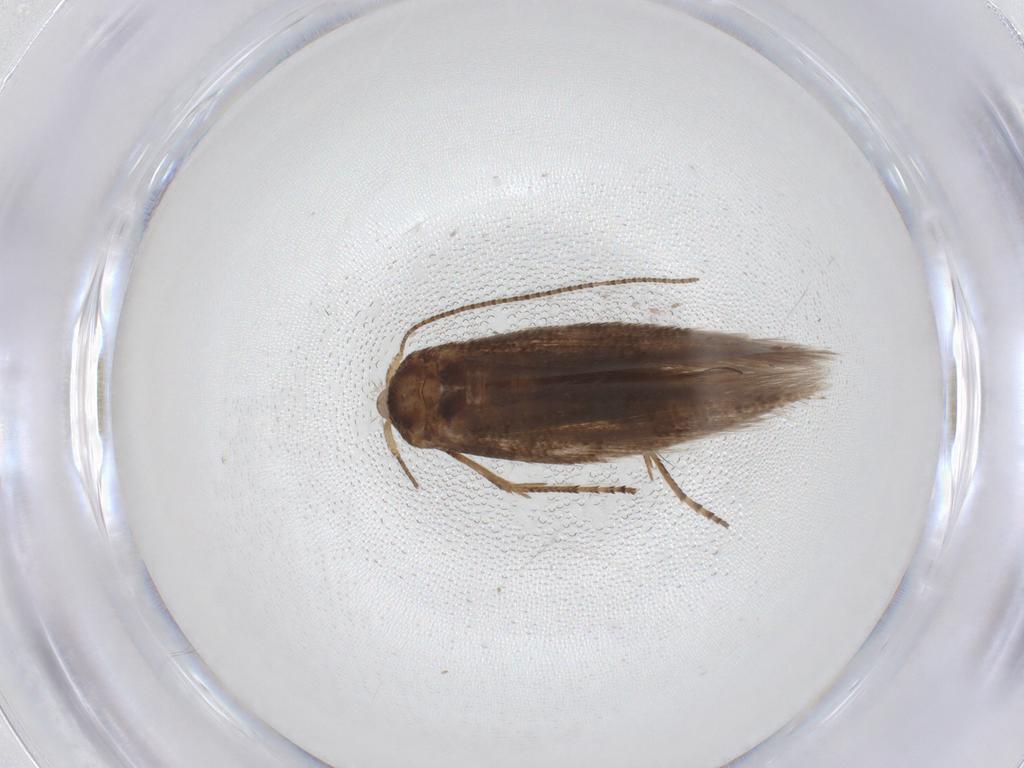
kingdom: Animalia
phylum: Arthropoda
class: Insecta
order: Lepidoptera
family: Bucculatricidae
